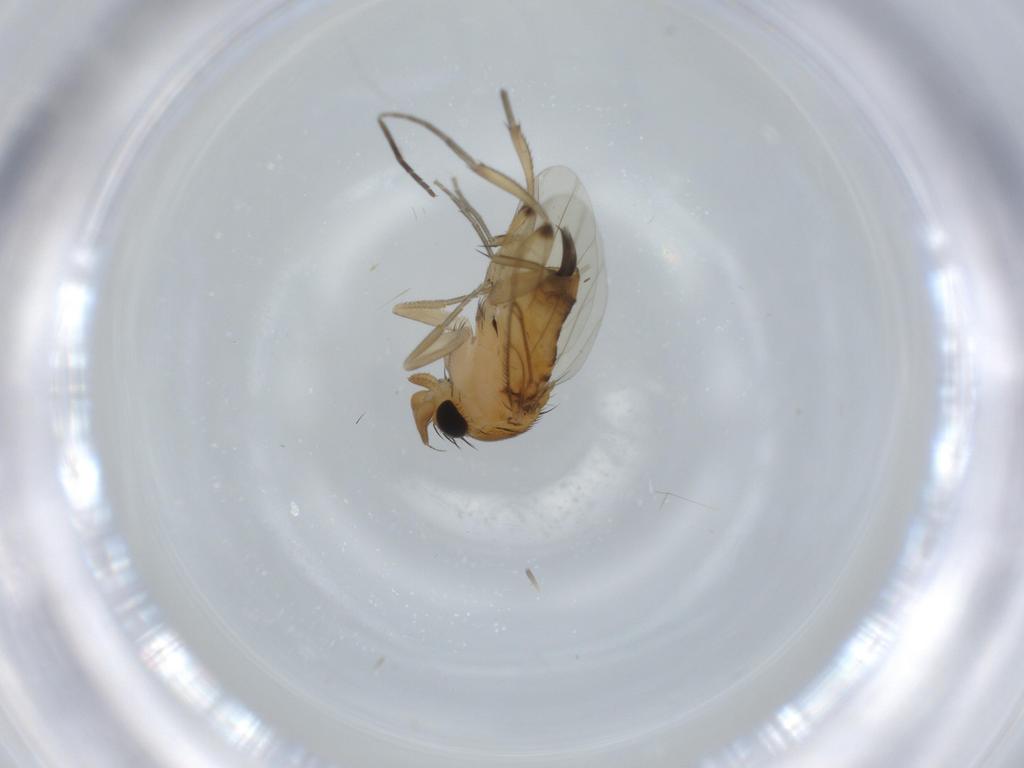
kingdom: Animalia
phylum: Arthropoda
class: Insecta
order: Diptera
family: Phoridae
